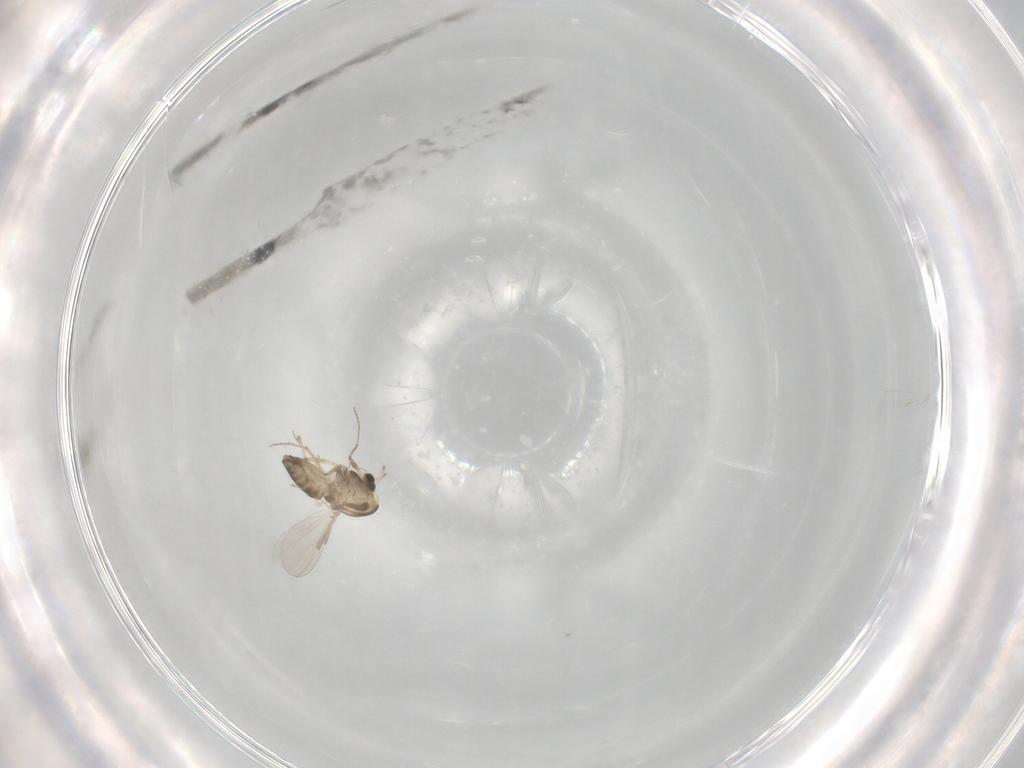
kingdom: Animalia
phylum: Arthropoda
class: Insecta
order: Diptera
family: Chironomidae
